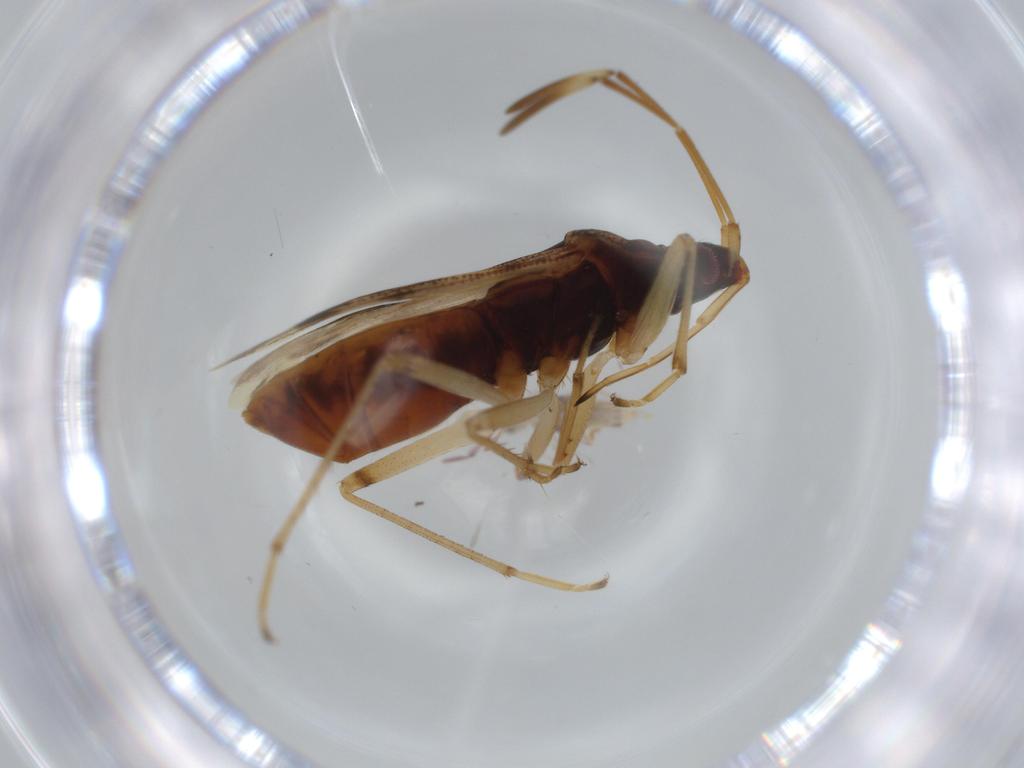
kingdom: Animalia
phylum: Arthropoda
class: Insecta
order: Hemiptera
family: Rhyparochromidae
